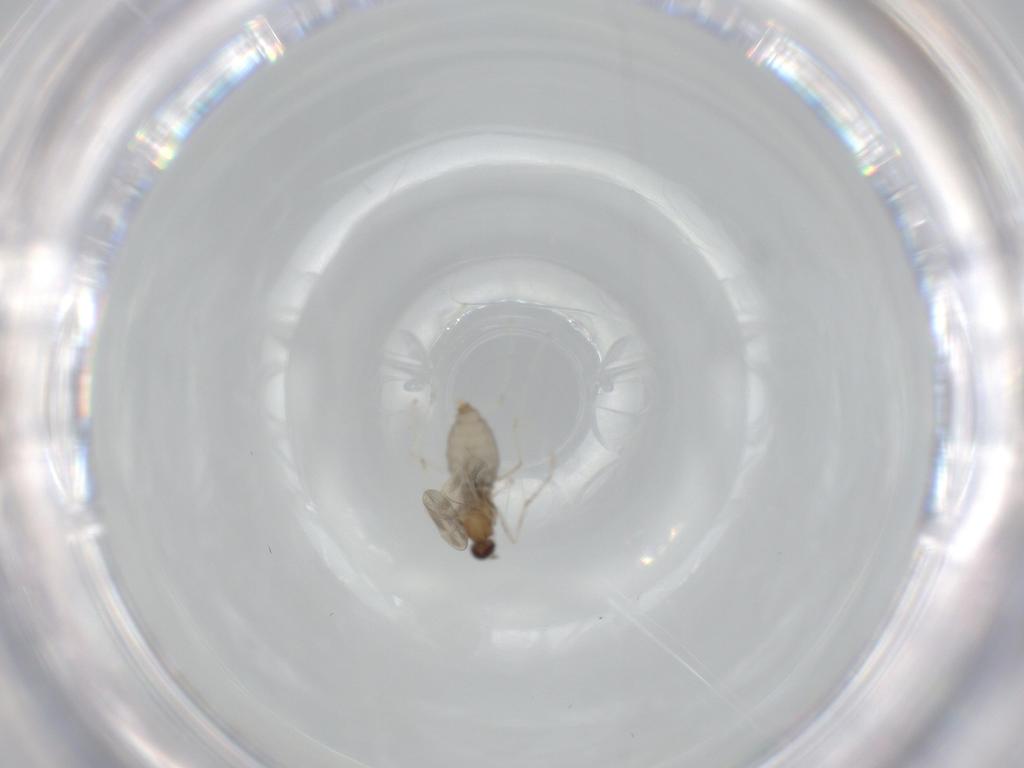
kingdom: Animalia
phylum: Arthropoda
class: Insecta
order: Diptera
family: Cecidomyiidae
